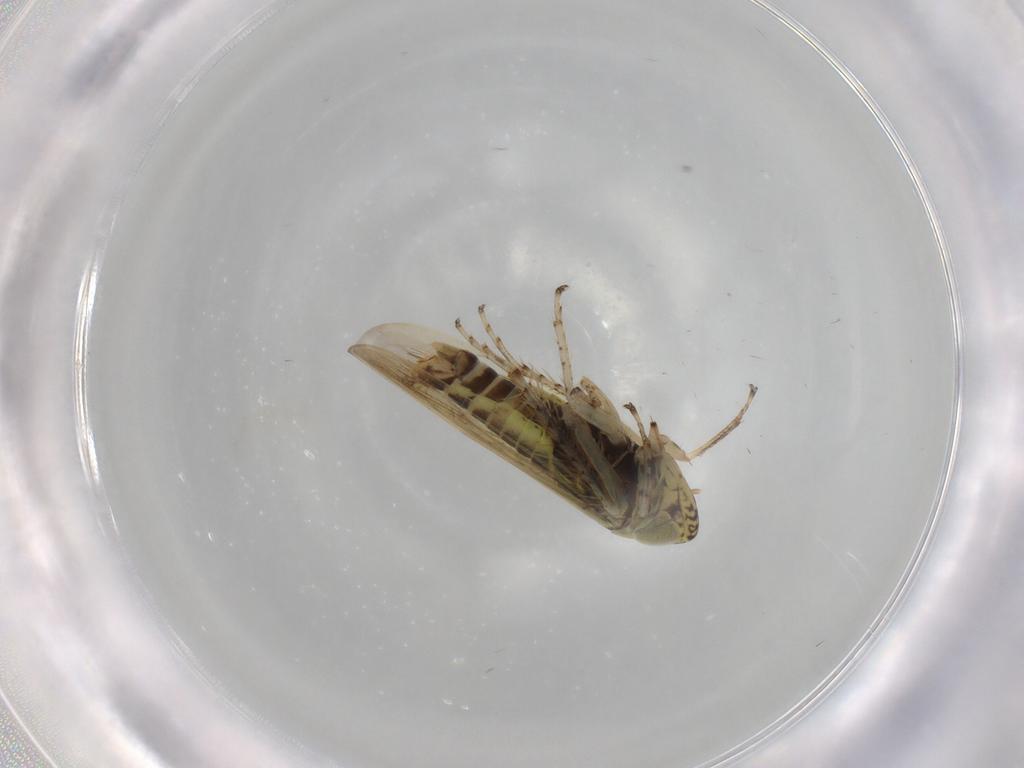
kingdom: Animalia
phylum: Arthropoda
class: Insecta
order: Hemiptera
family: Cicadellidae
